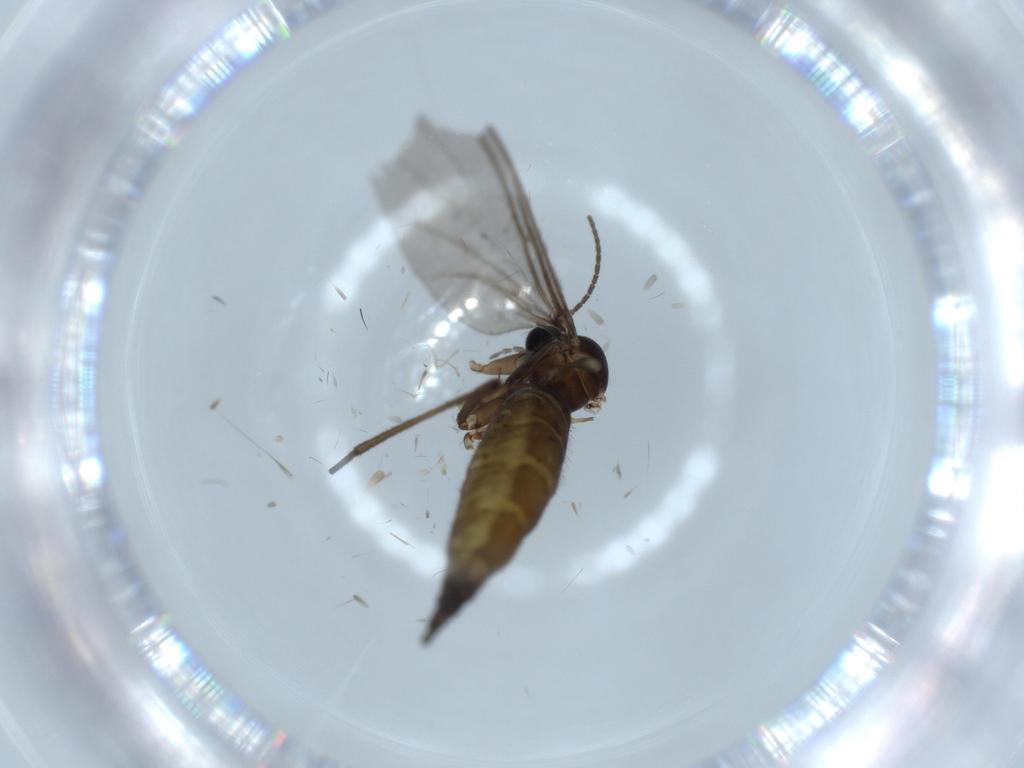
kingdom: Animalia
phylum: Arthropoda
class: Insecta
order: Diptera
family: Sciaridae
